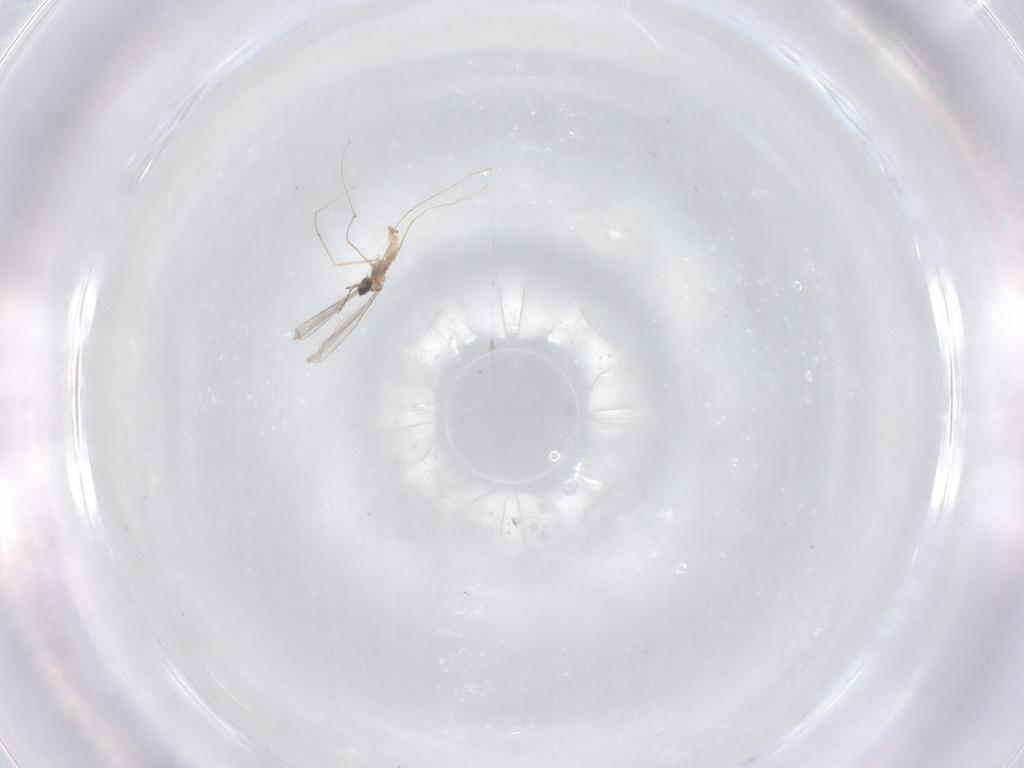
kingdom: Animalia
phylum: Arthropoda
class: Insecta
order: Diptera
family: Cecidomyiidae
